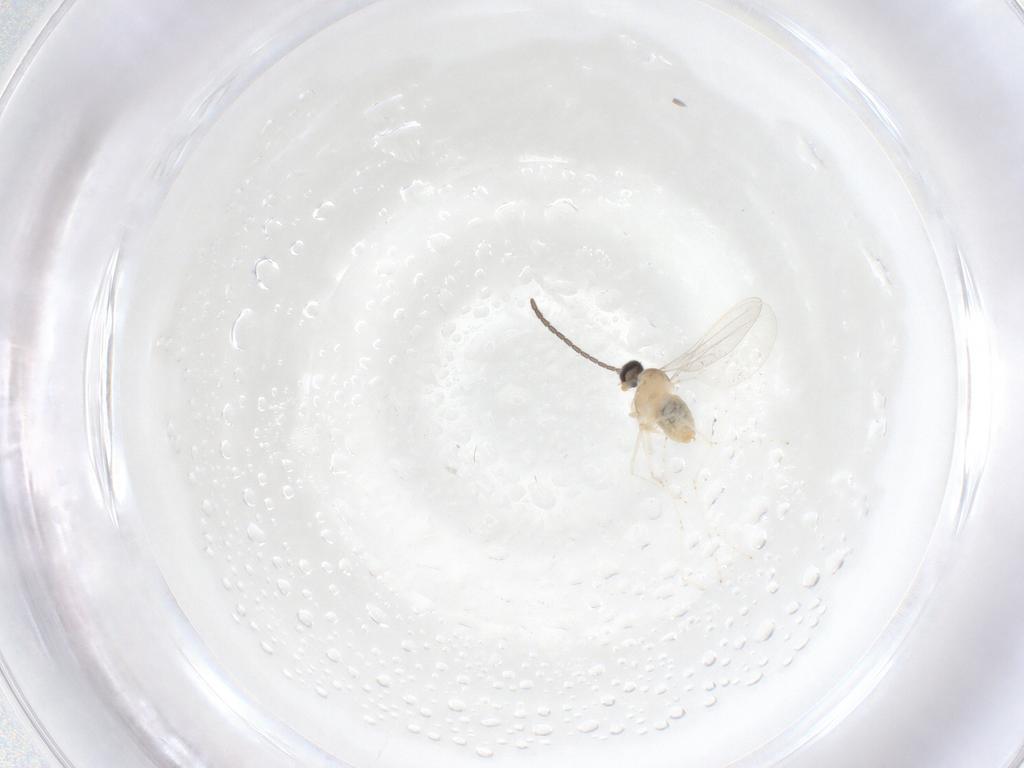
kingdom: Animalia
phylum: Arthropoda
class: Insecta
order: Diptera
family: Cecidomyiidae
